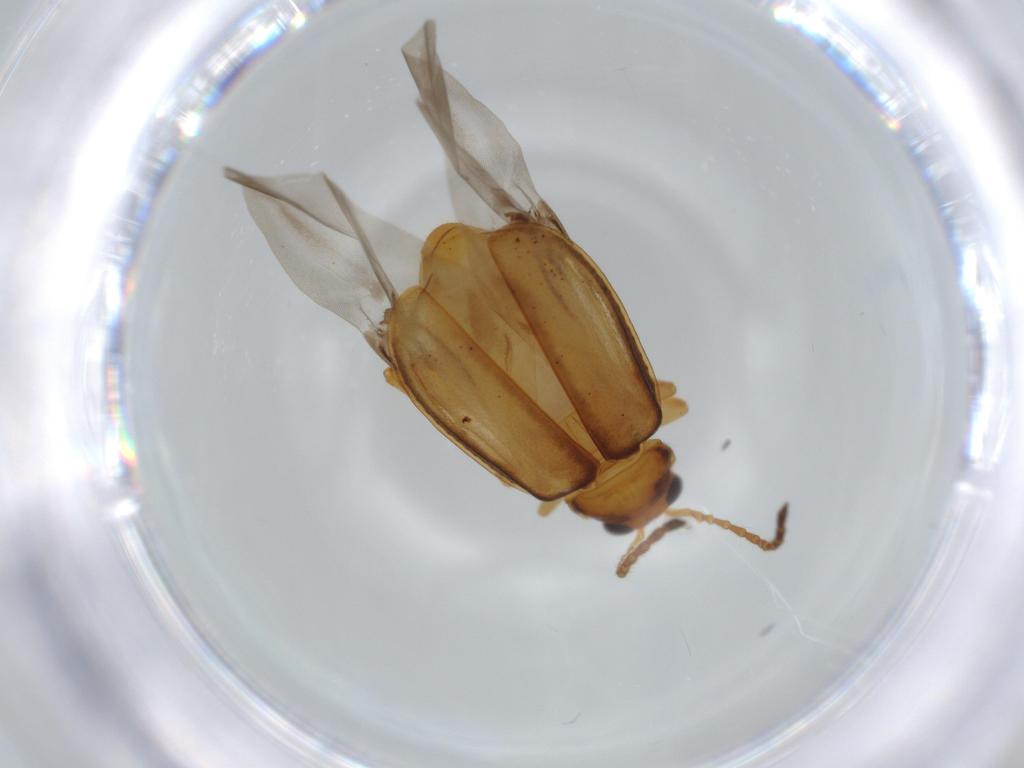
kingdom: Animalia
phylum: Arthropoda
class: Insecta
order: Coleoptera
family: Chrysomelidae
